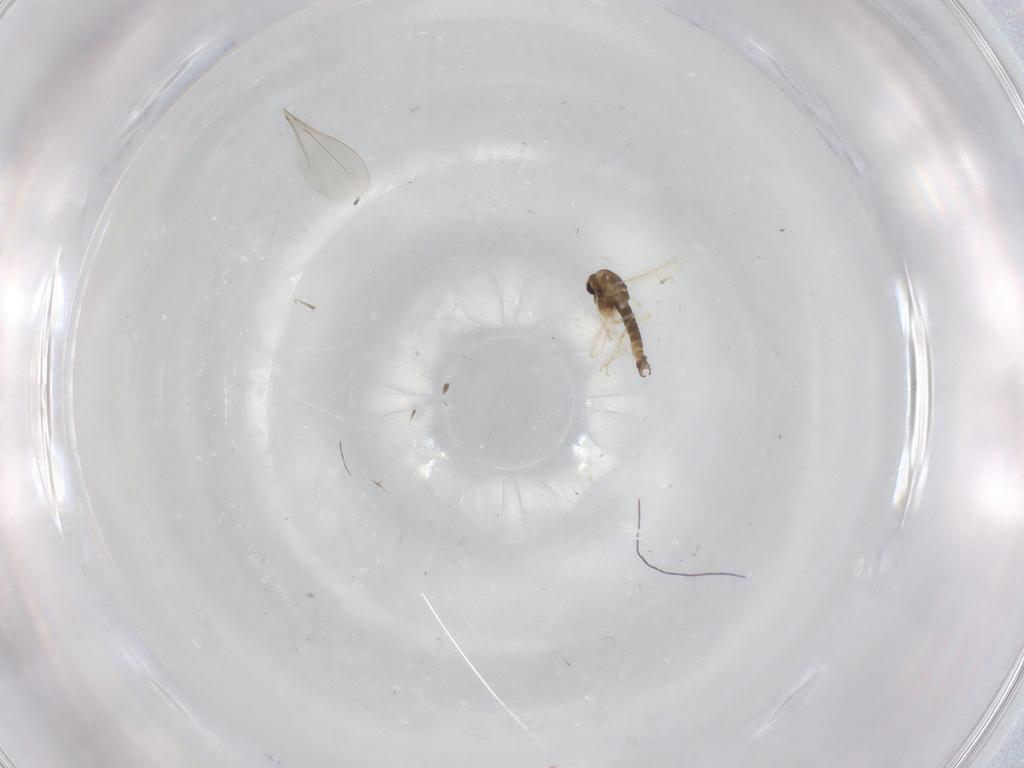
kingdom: Animalia
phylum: Arthropoda
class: Insecta
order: Diptera
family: Chironomidae
